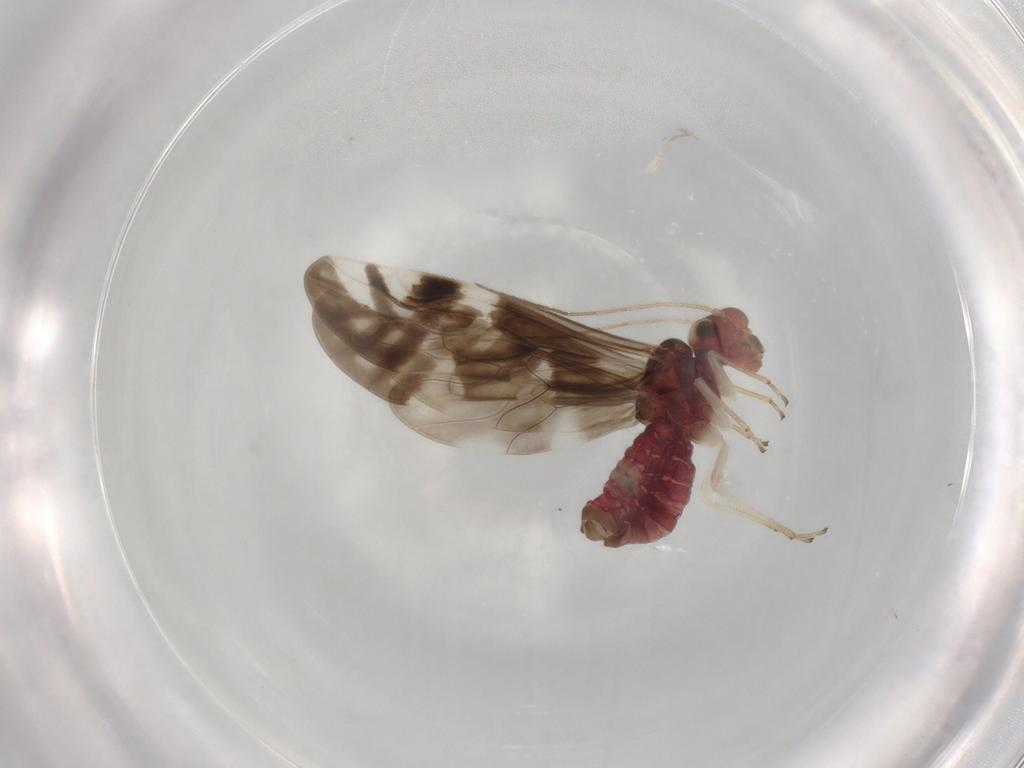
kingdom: Animalia
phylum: Arthropoda
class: Insecta
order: Psocodea
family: Caeciliusidae
